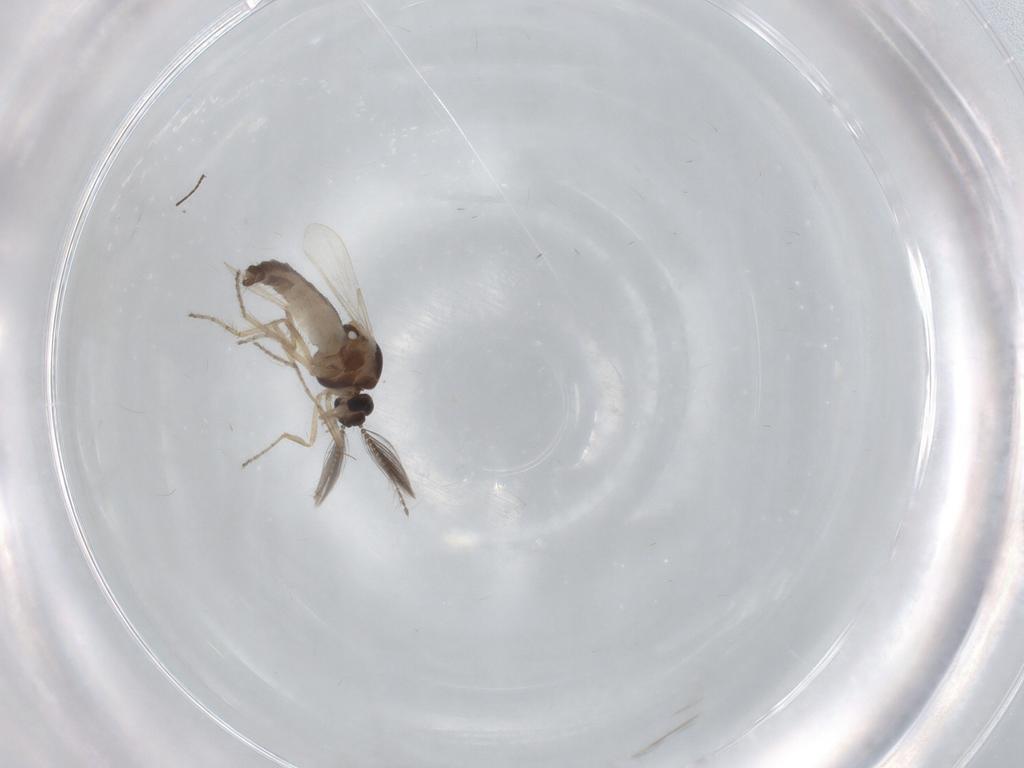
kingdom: Animalia
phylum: Arthropoda
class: Insecta
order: Diptera
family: Ceratopogonidae
